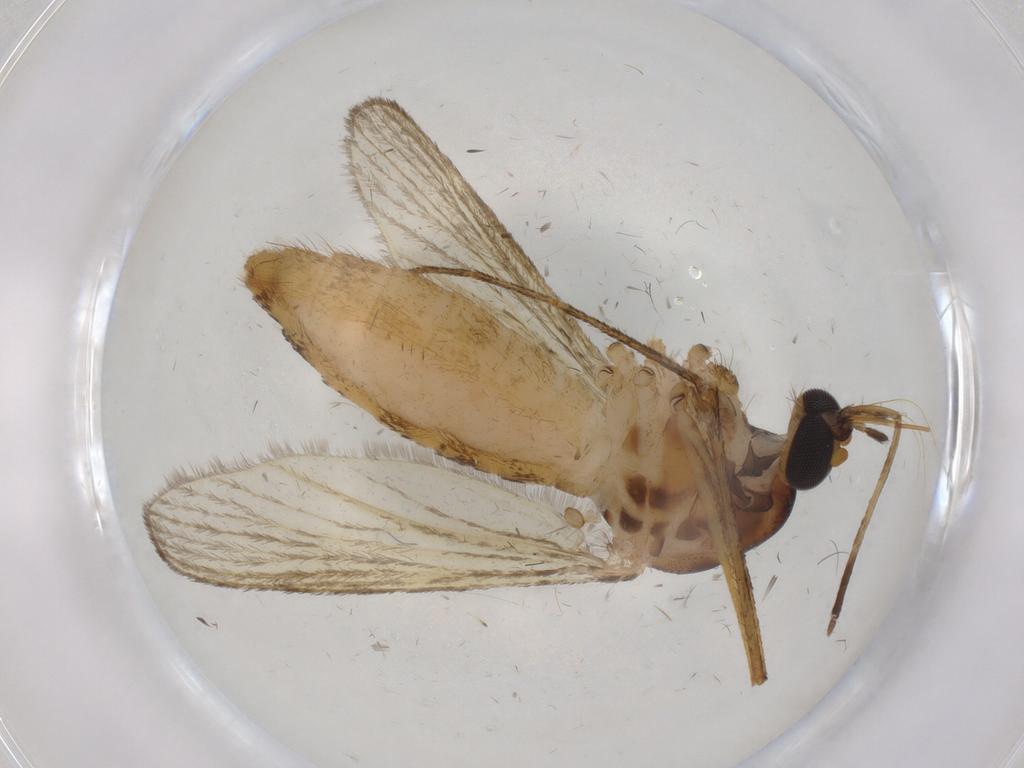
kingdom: Animalia
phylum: Arthropoda
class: Insecta
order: Diptera
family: Culicidae
